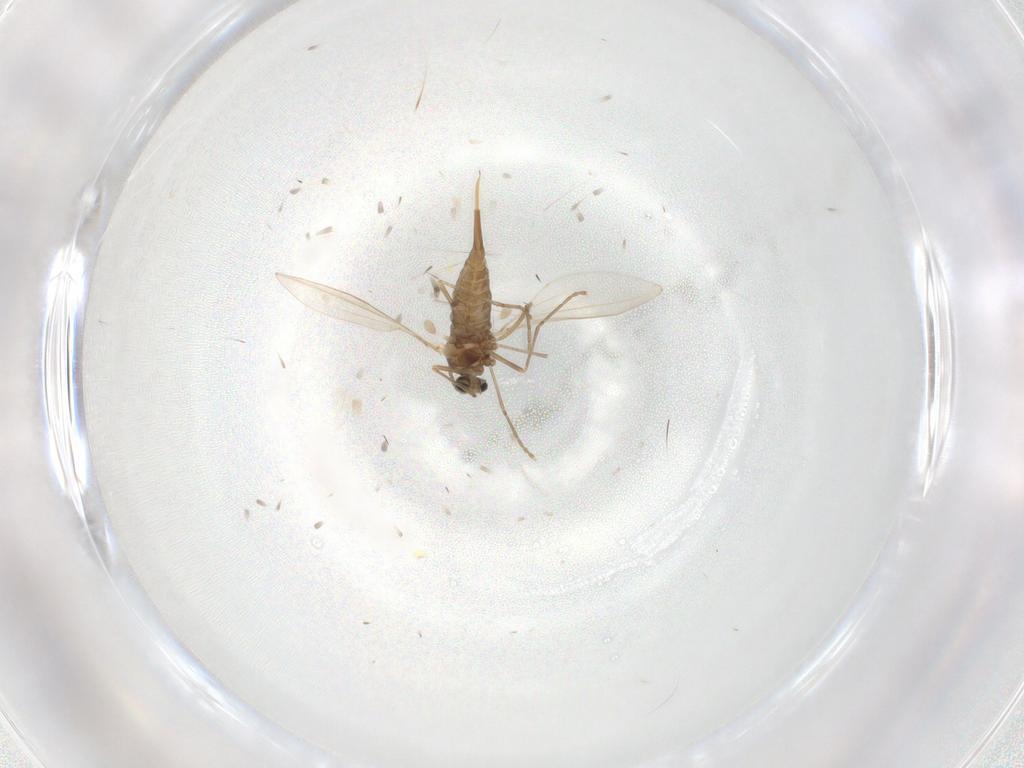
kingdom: Animalia
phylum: Arthropoda
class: Insecta
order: Diptera
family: Cecidomyiidae
